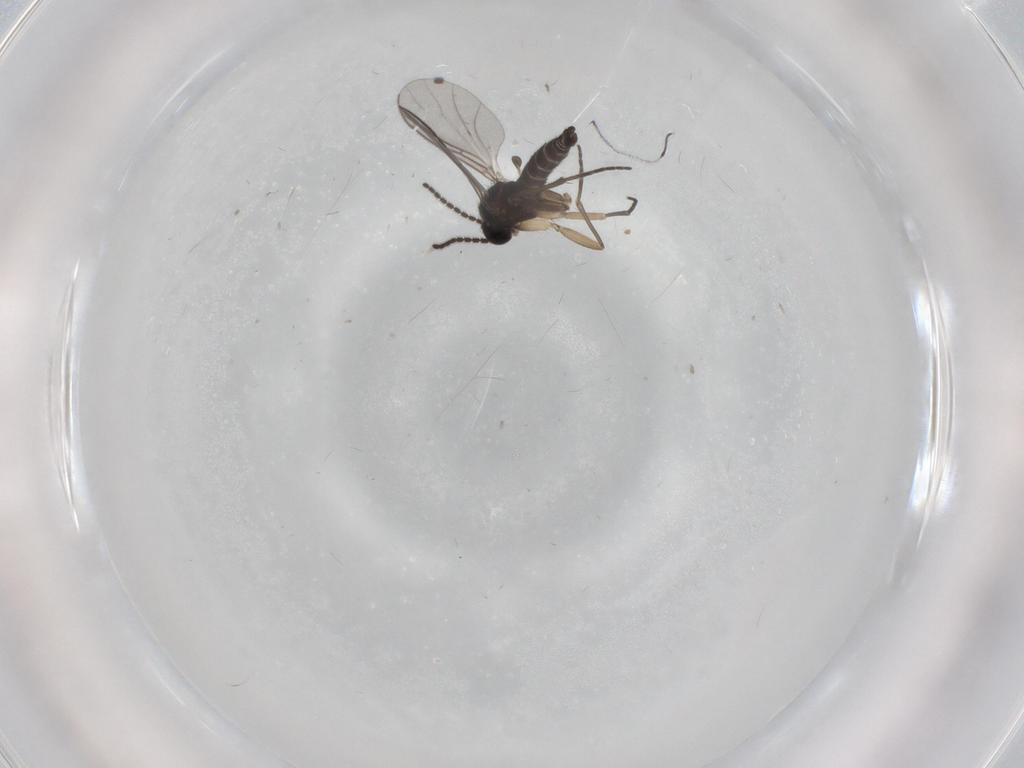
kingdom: Animalia
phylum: Arthropoda
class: Insecta
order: Diptera
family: Sciaridae
